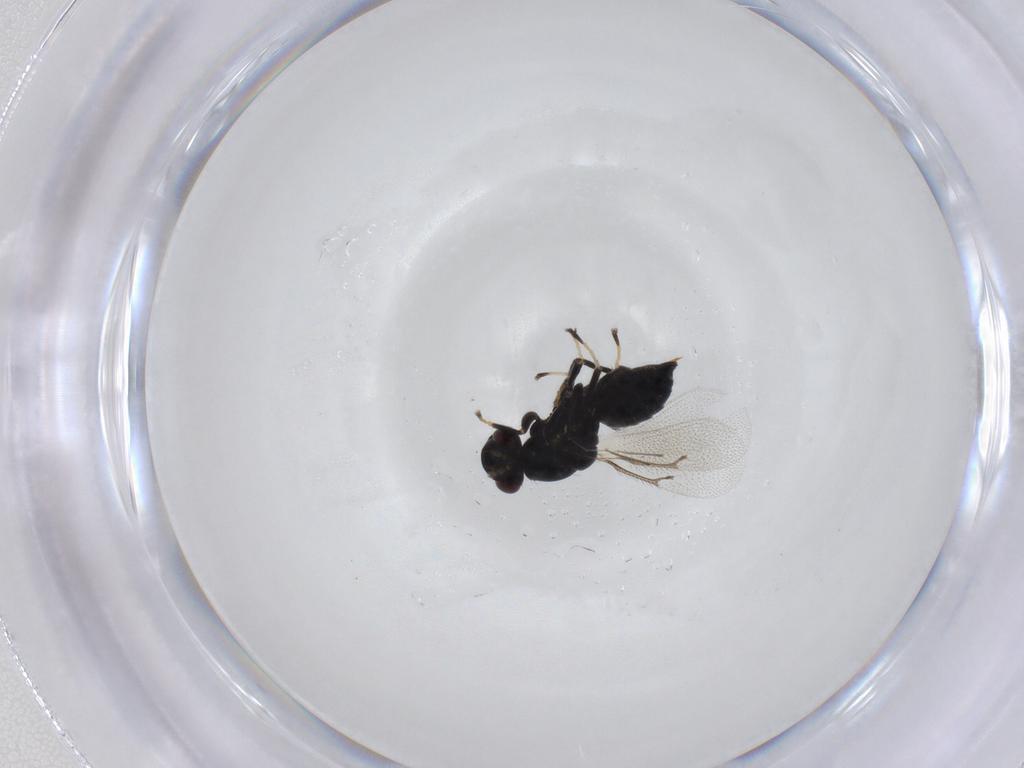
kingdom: Animalia
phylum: Arthropoda
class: Insecta
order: Hymenoptera
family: Eulophidae
